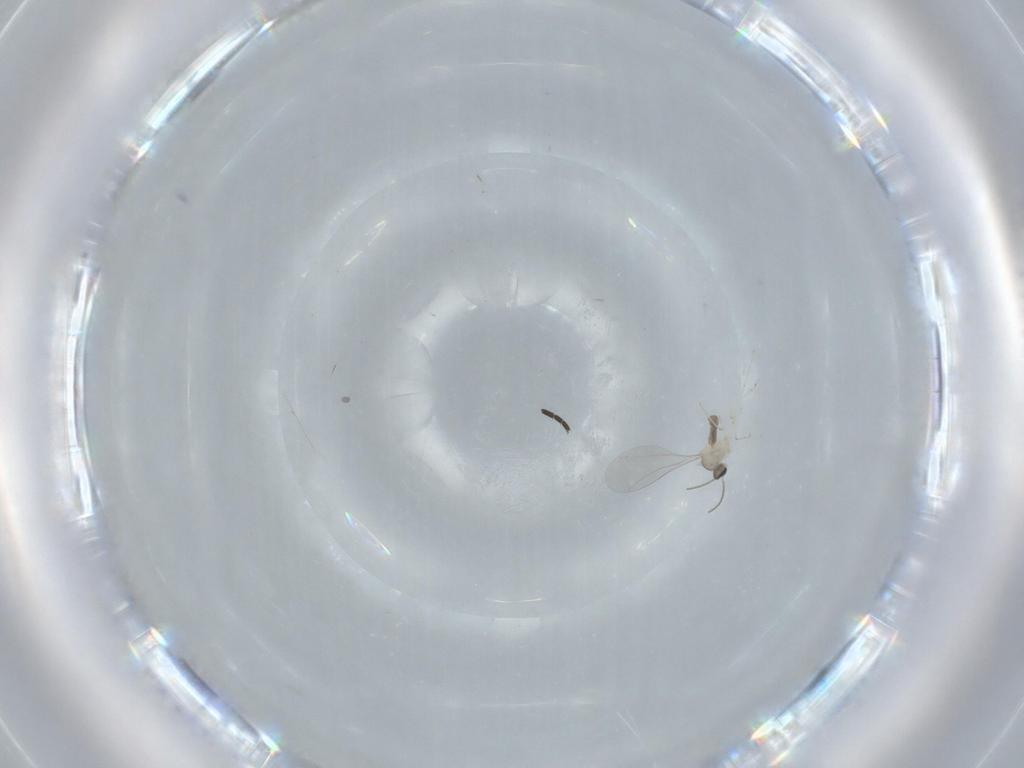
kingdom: Animalia
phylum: Arthropoda
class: Insecta
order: Diptera
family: Cecidomyiidae
